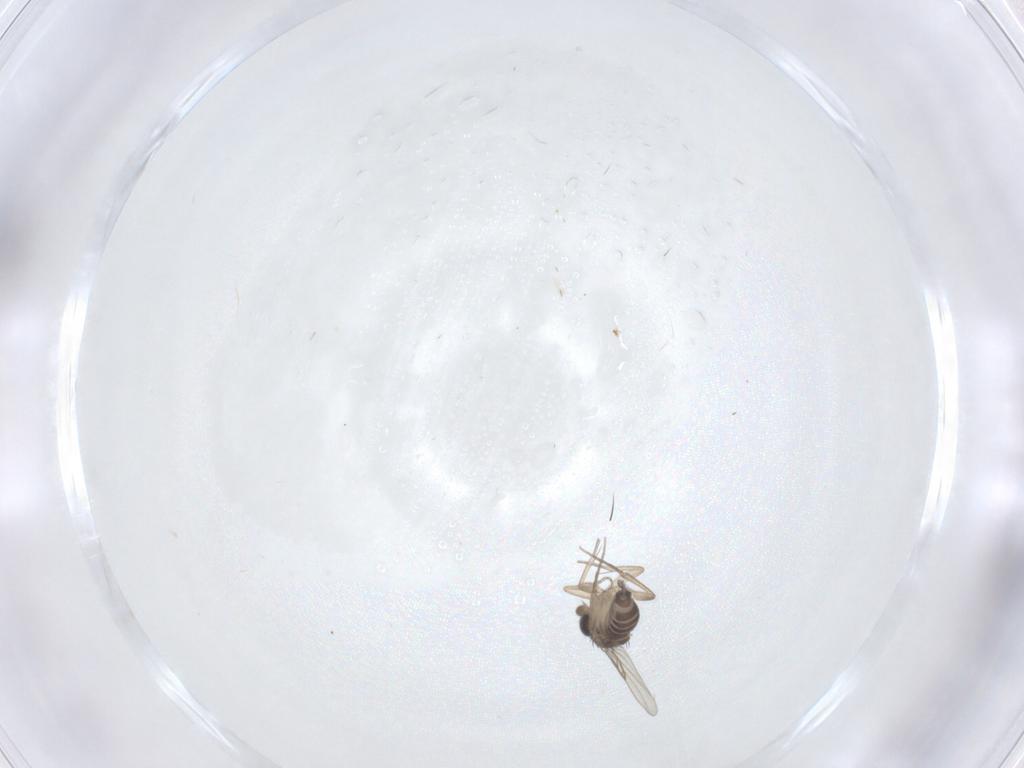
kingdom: Animalia
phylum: Arthropoda
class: Insecta
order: Diptera
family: Phoridae
